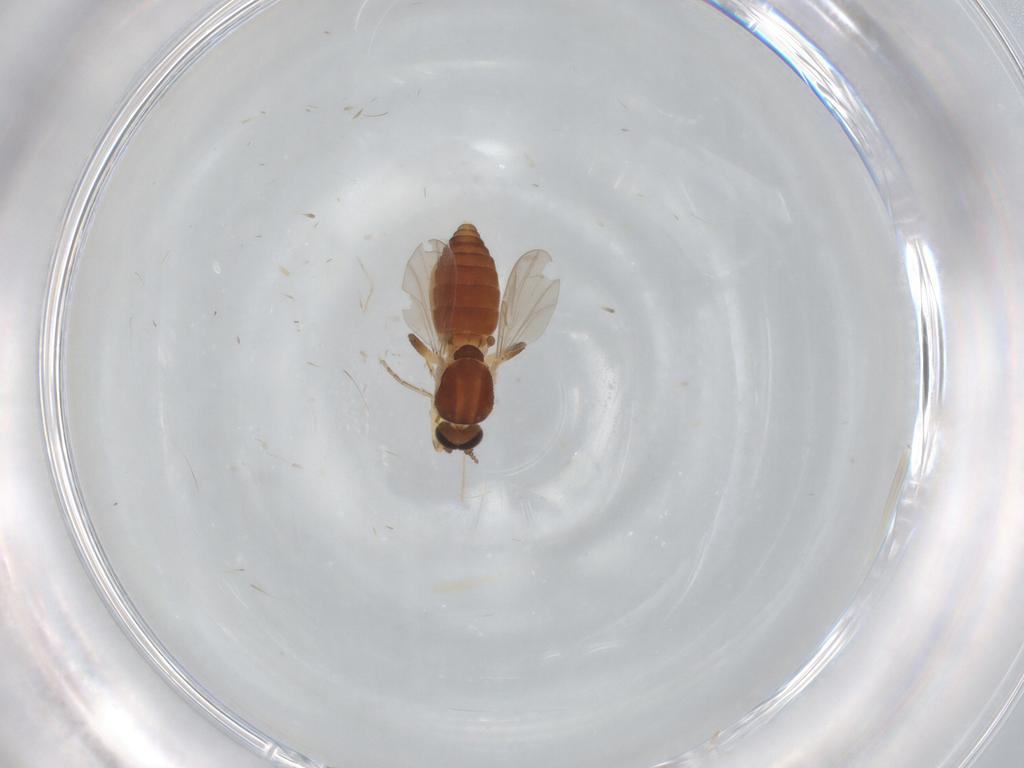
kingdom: Animalia
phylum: Arthropoda
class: Insecta
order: Diptera
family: Ceratopogonidae
